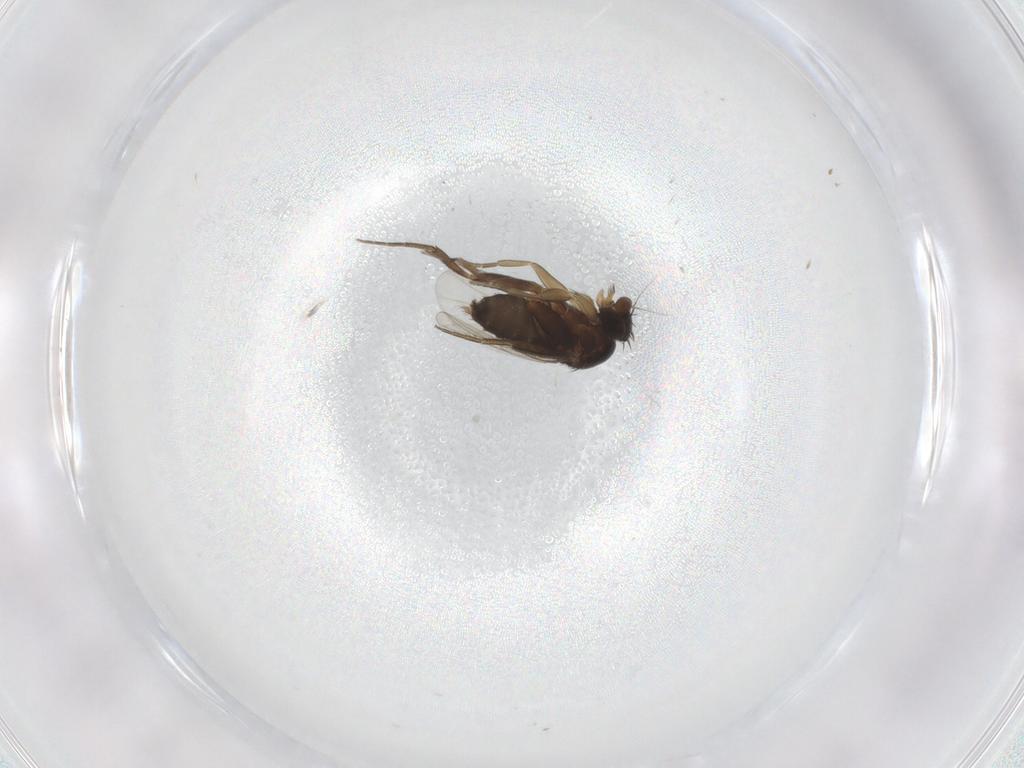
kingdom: Animalia
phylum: Arthropoda
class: Insecta
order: Diptera
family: Phoridae
